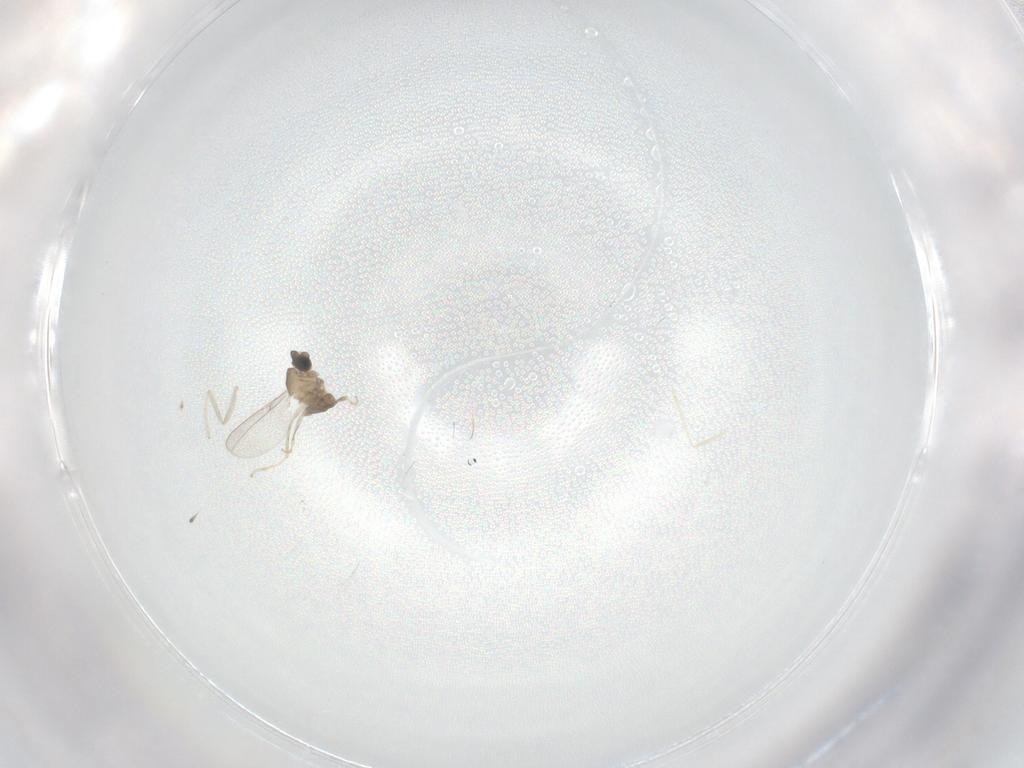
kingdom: Animalia
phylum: Arthropoda
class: Insecta
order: Diptera
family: Cecidomyiidae
